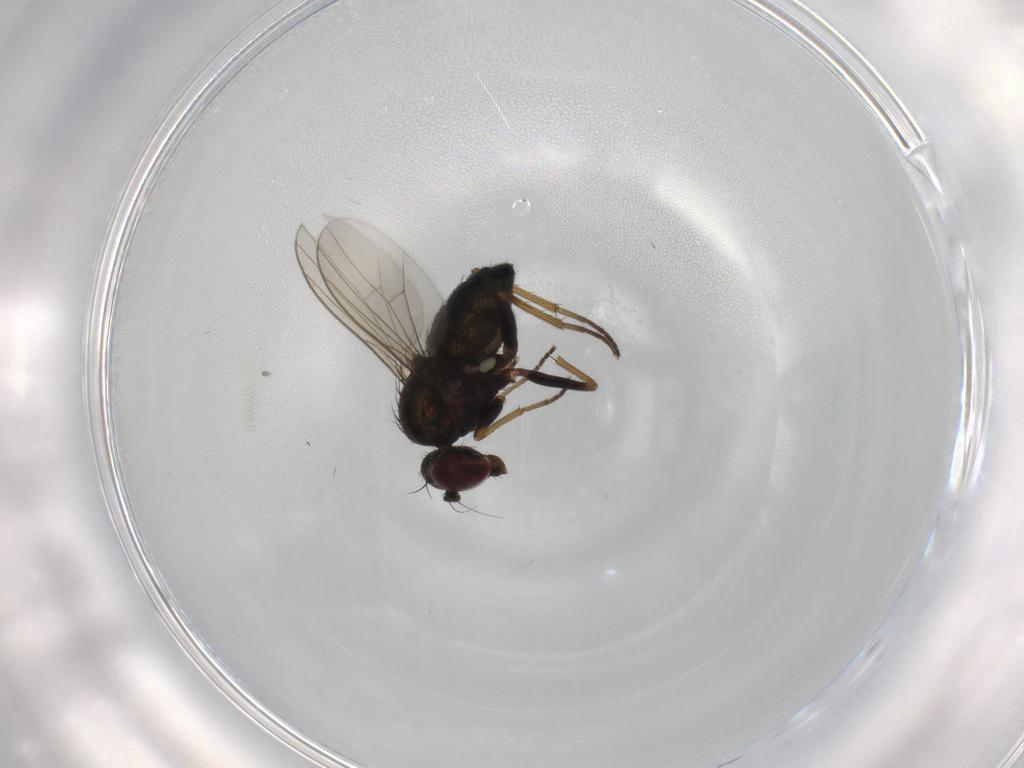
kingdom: Animalia
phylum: Arthropoda
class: Insecta
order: Diptera
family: Dolichopodidae
